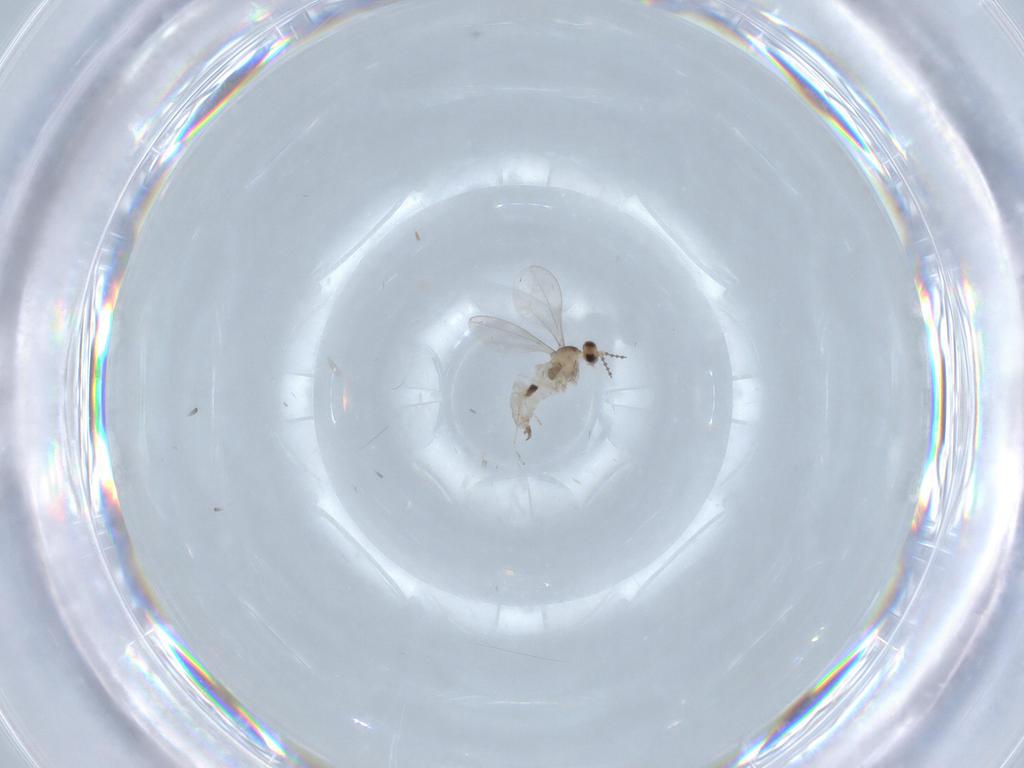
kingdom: Animalia
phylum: Arthropoda
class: Insecta
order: Diptera
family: Cecidomyiidae
